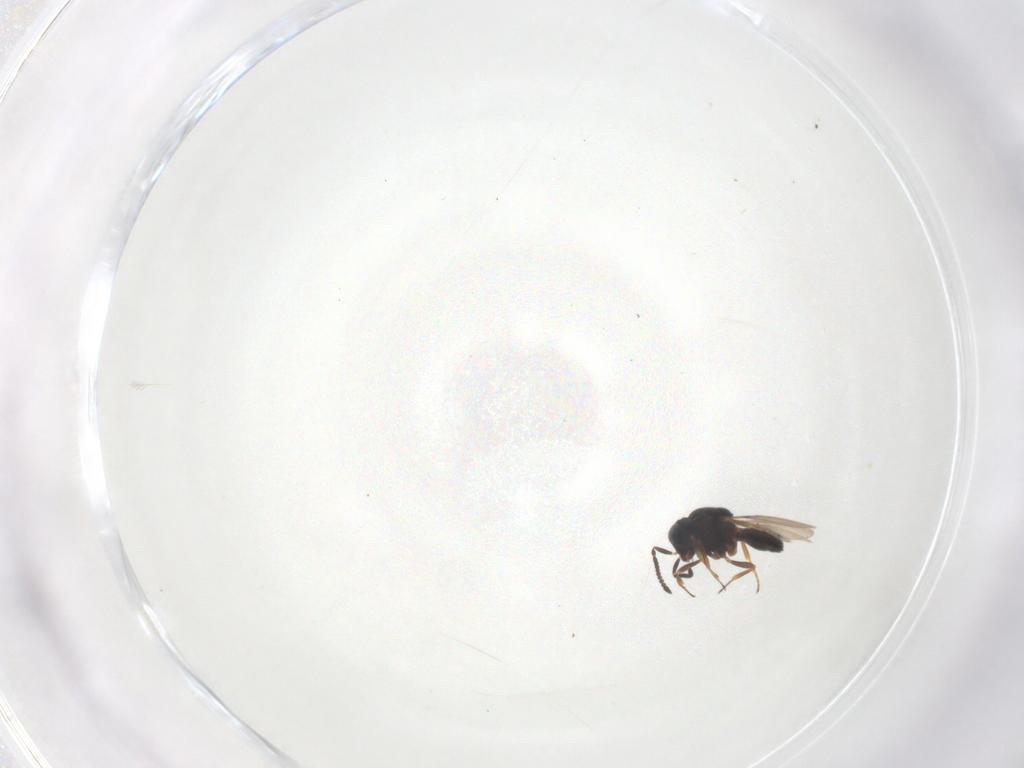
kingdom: Animalia
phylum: Arthropoda
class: Arachnida
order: Araneae
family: Pholcidae
